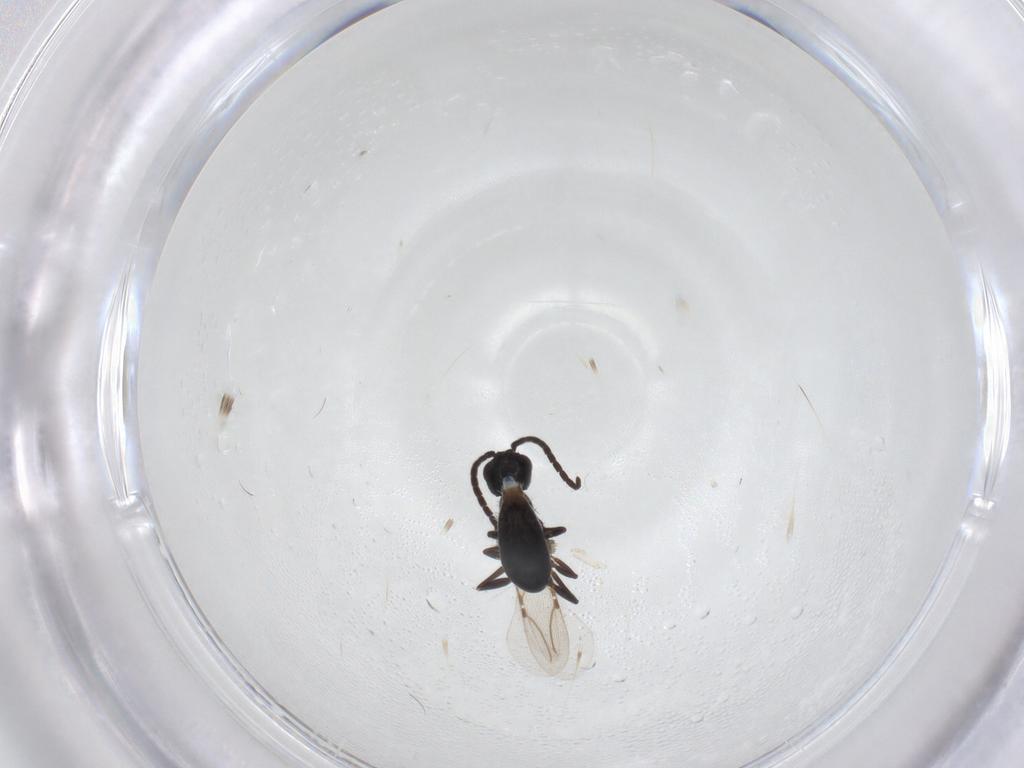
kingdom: Animalia
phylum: Arthropoda
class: Insecta
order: Hymenoptera
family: Bethylidae
